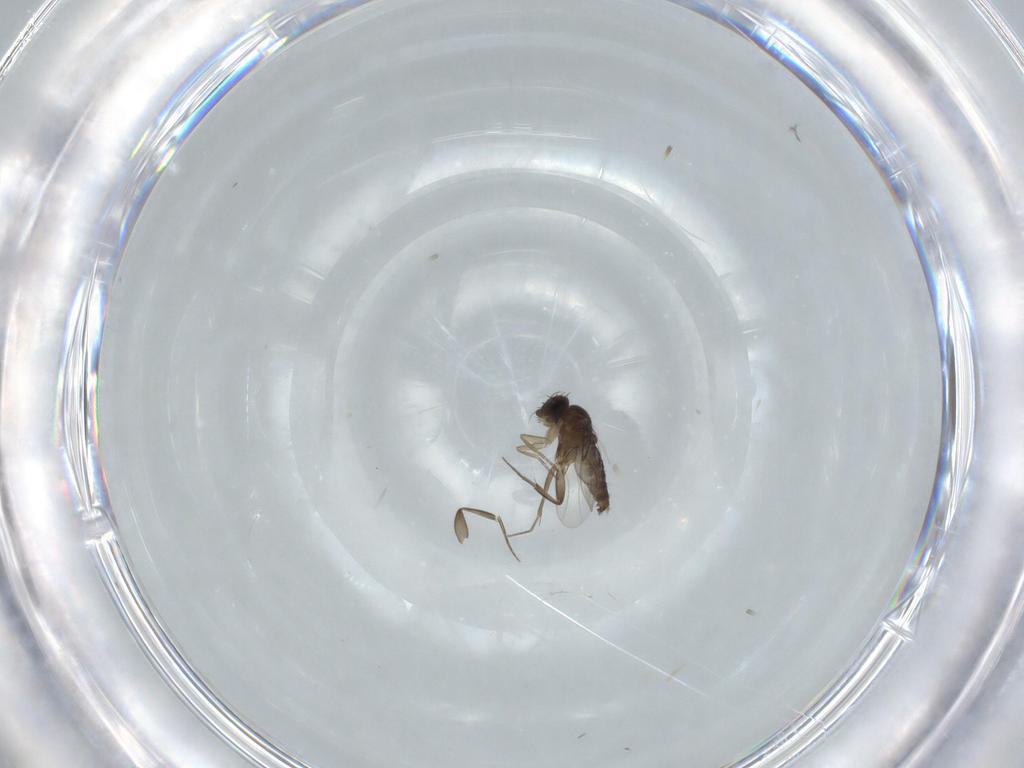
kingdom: Animalia
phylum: Arthropoda
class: Insecta
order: Diptera
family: Phoridae
